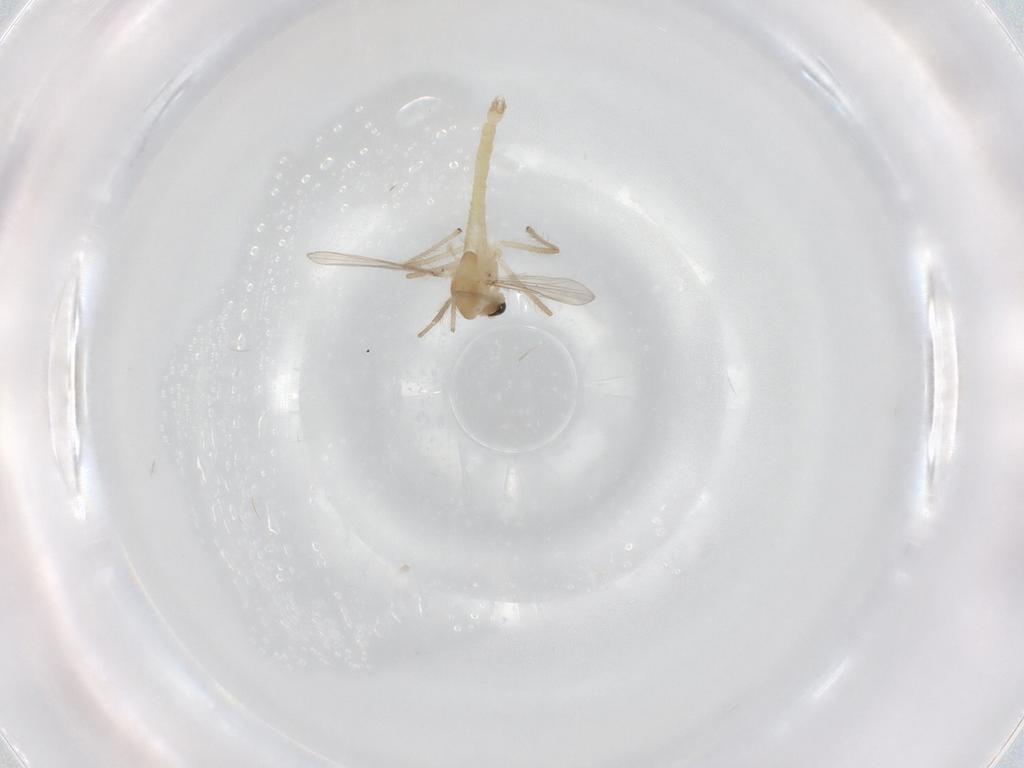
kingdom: Animalia
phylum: Arthropoda
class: Insecta
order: Diptera
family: Chironomidae
